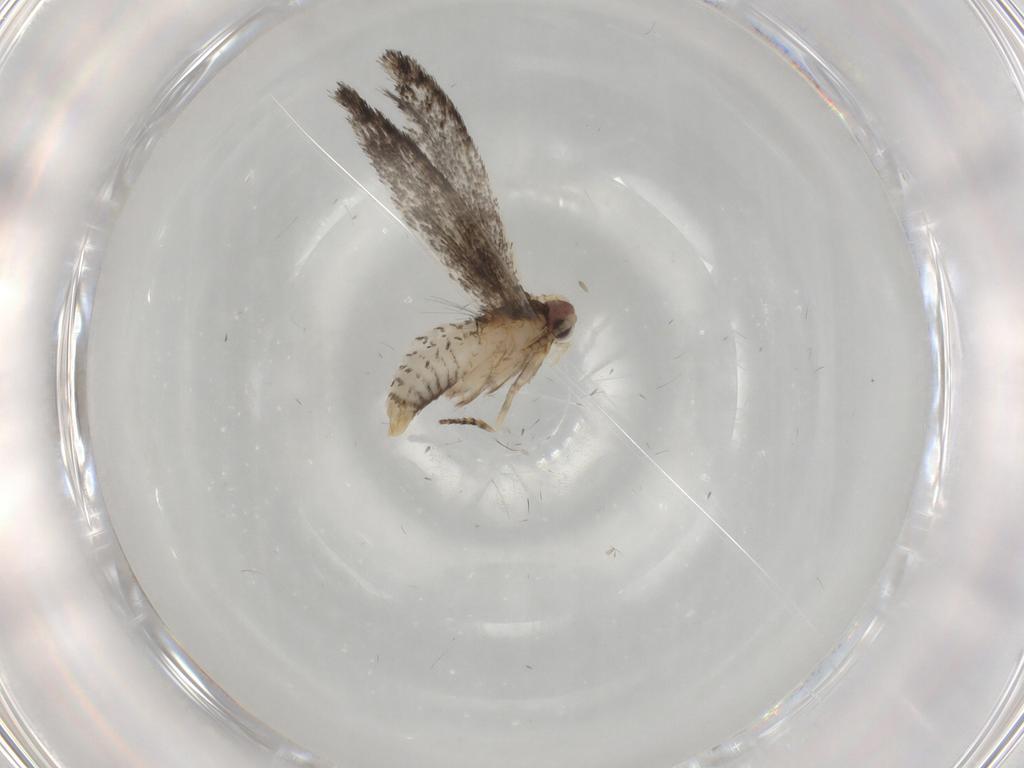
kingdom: Animalia
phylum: Arthropoda
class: Insecta
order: Lepidoptera
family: Tineidae
